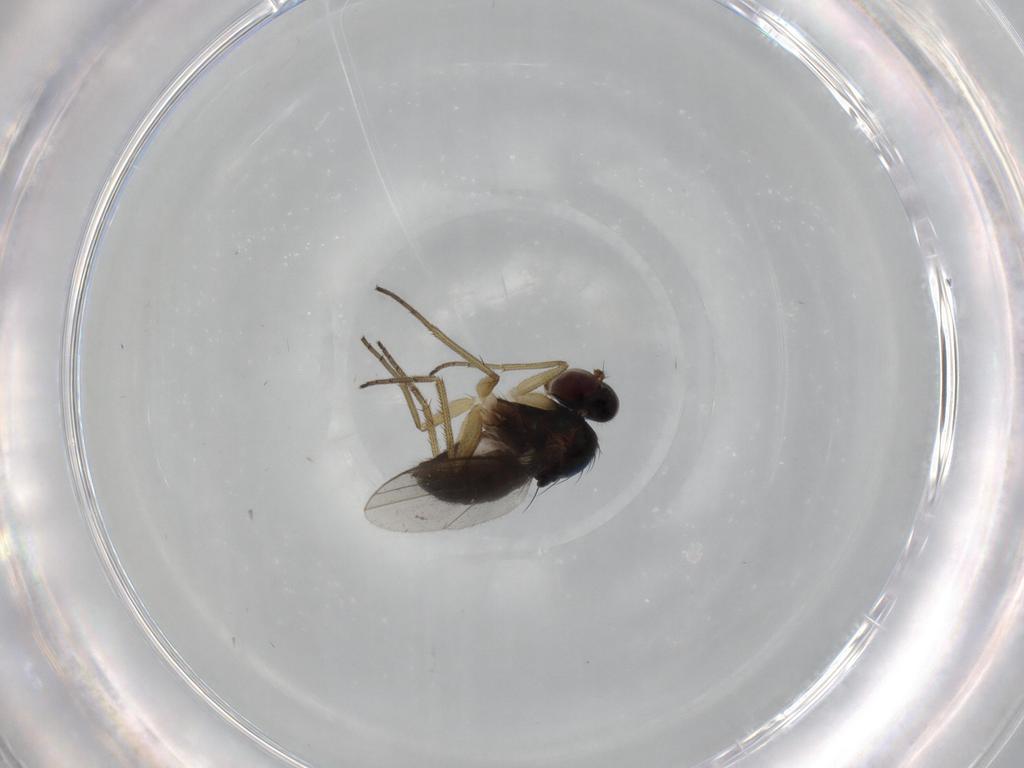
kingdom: Animalia
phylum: Arthropoda
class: Insecta
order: Diptera
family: Dolichopodidae
